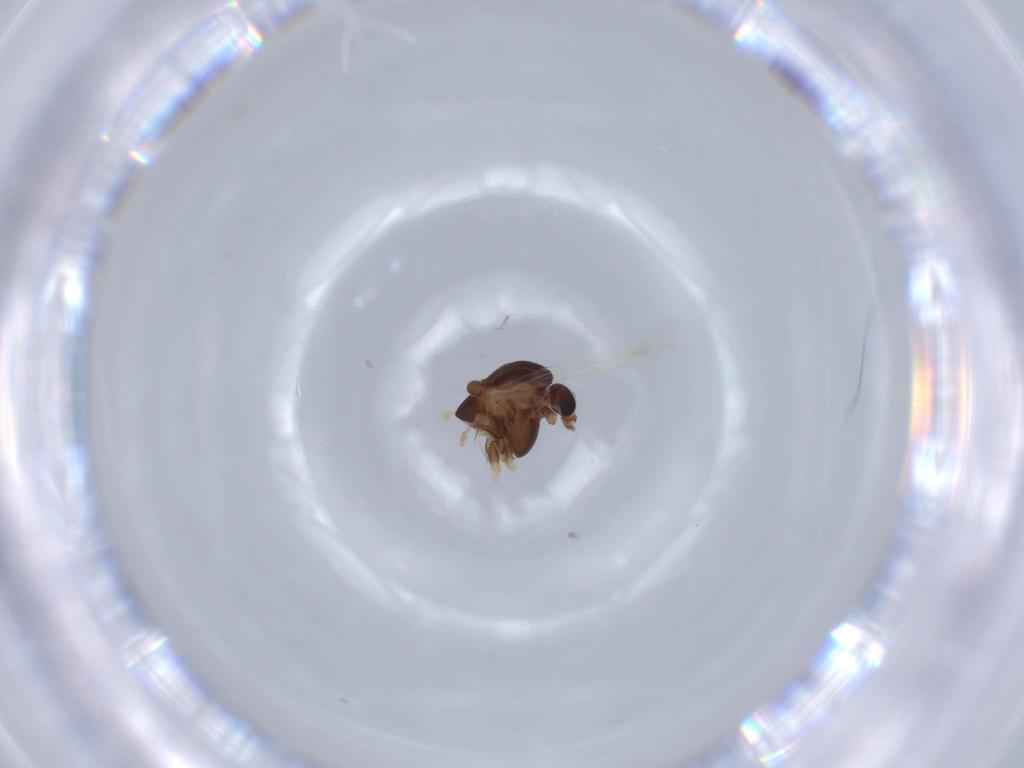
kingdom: Animalia
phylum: Arthropoda
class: Insecta
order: Diptera
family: Chironomidae
